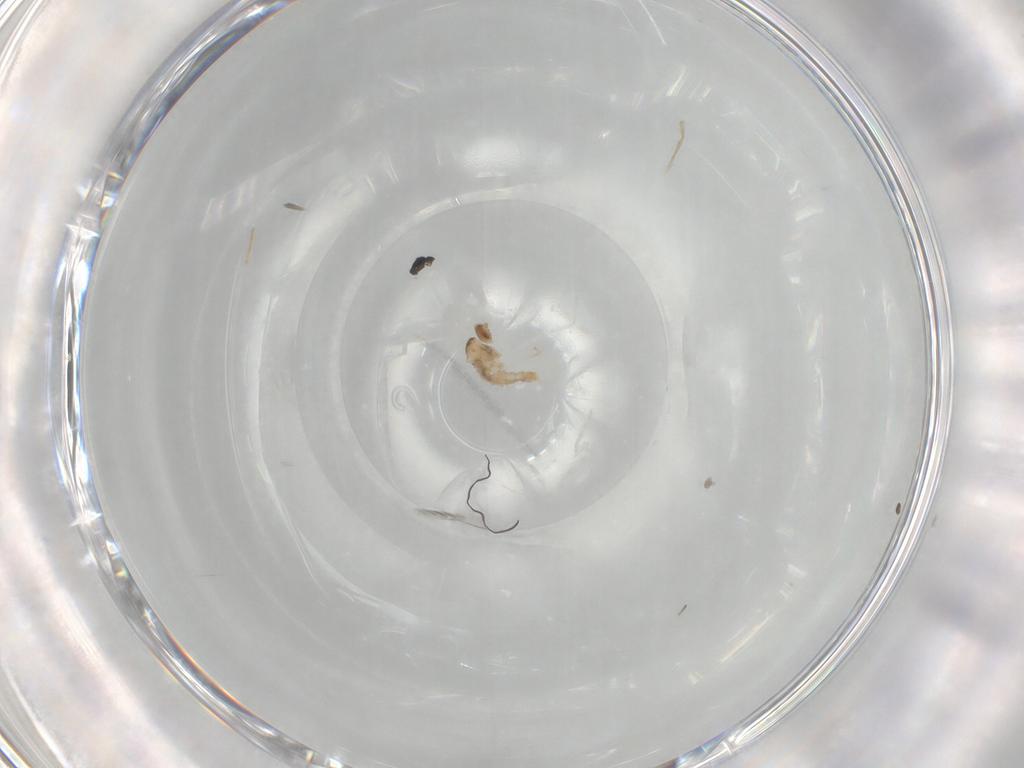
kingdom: Animalia
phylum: Arthropoda
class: Insecta
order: Diptera
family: Cecidomyiidae
